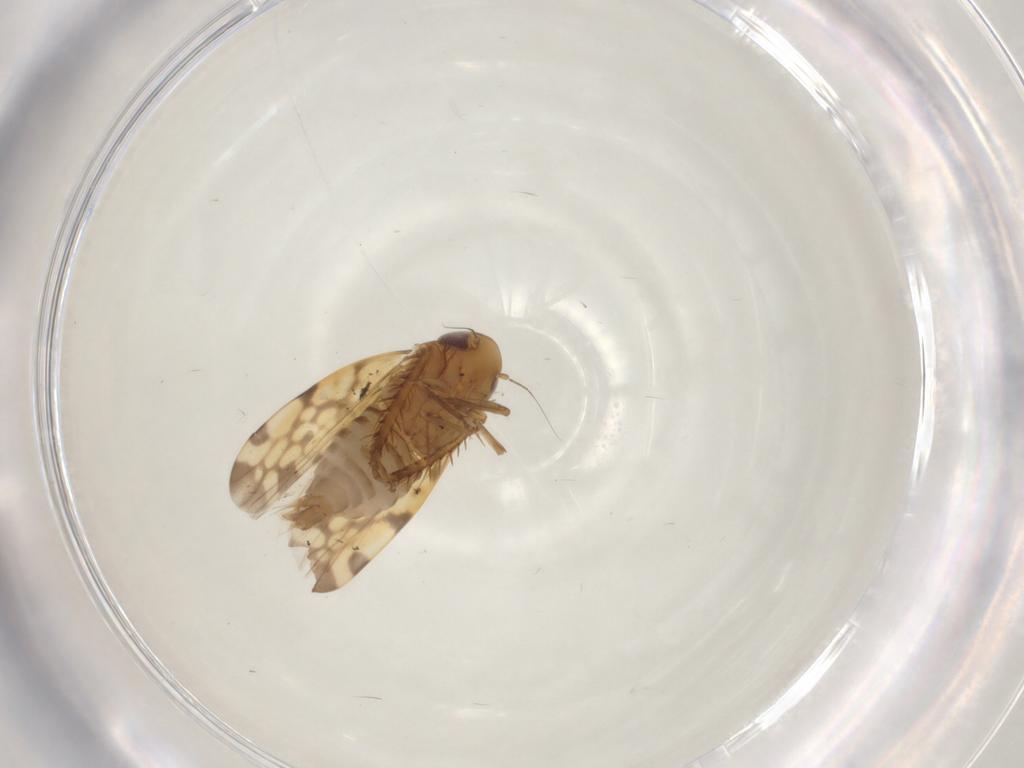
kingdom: Animalia
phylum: Arthropoda
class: Insecta
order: Hemiptera
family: Cicadellidae
